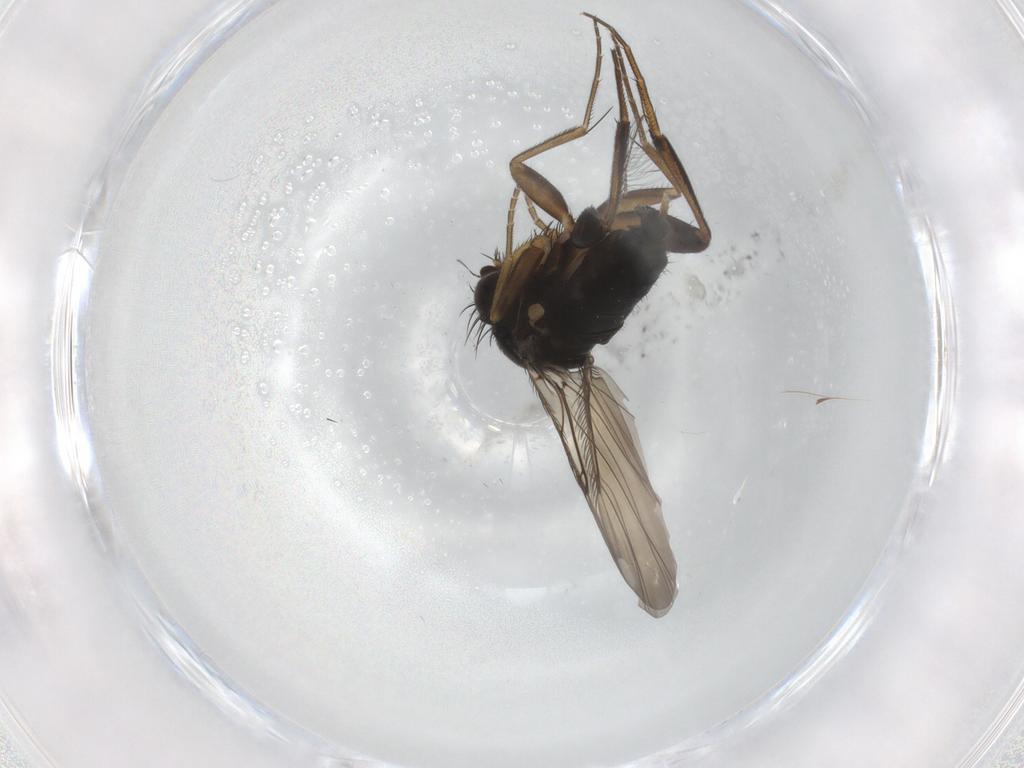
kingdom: Animalia
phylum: Arthropoda
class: Insecta
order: Diptera
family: Phoridae
